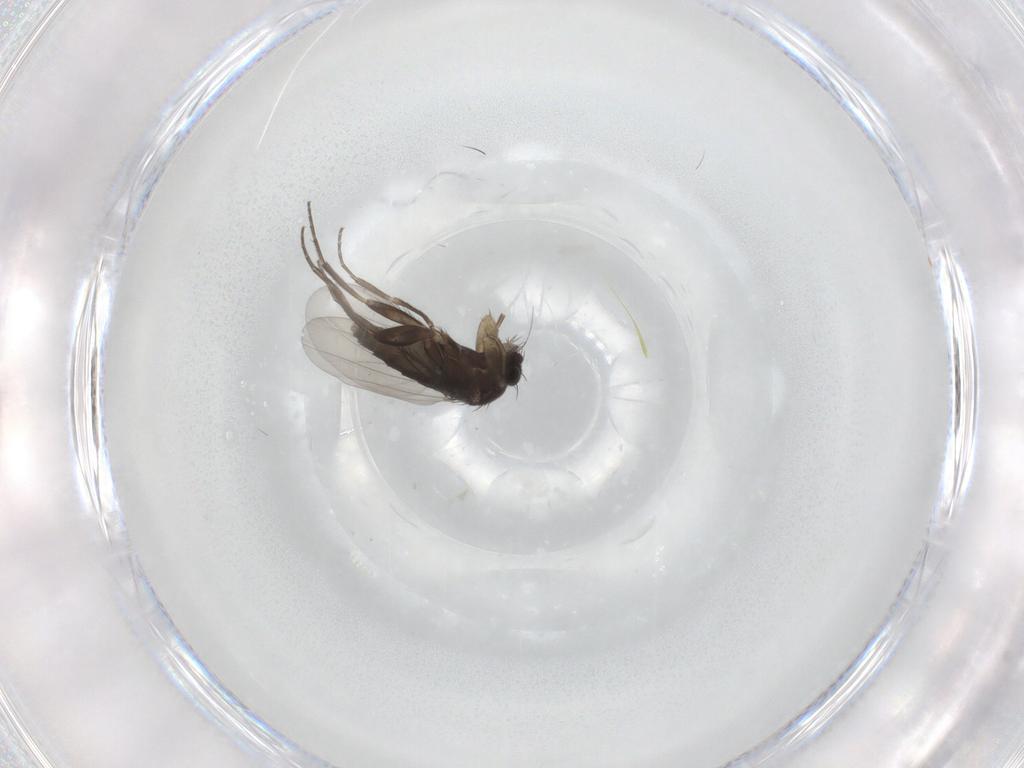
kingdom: Animalia
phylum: Arthropoda
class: Insecta
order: Diptera
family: Phoridae
